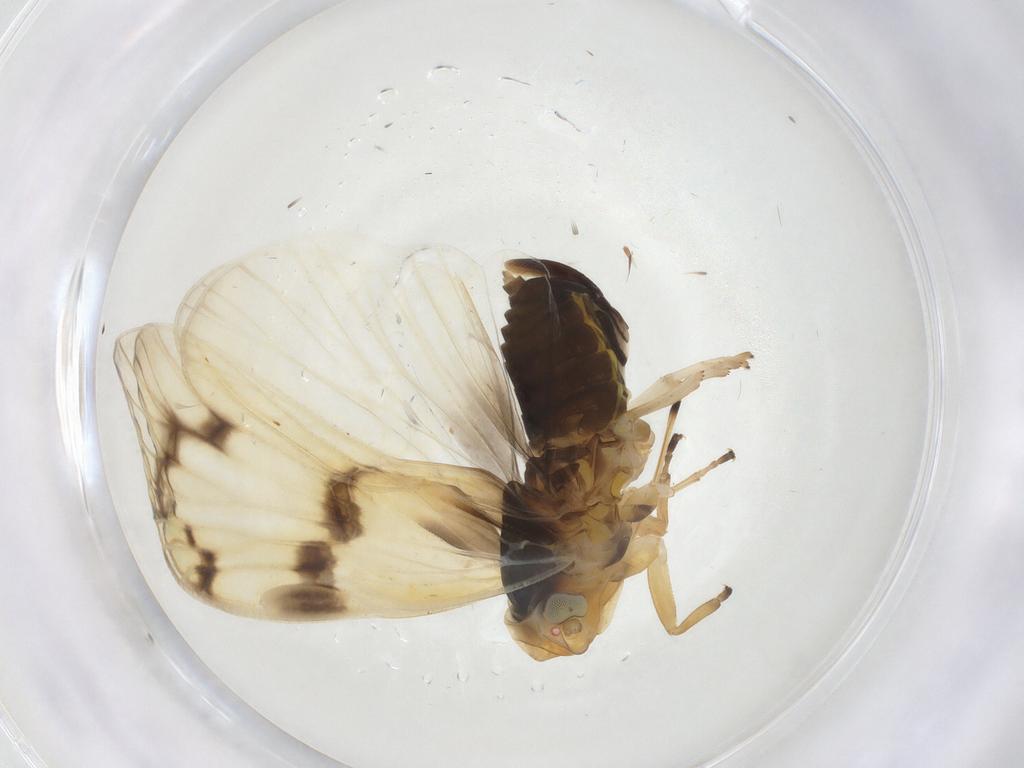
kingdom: Animalia
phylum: Arthropoda
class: Insecta
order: Hemiptera
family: Cixiidae
